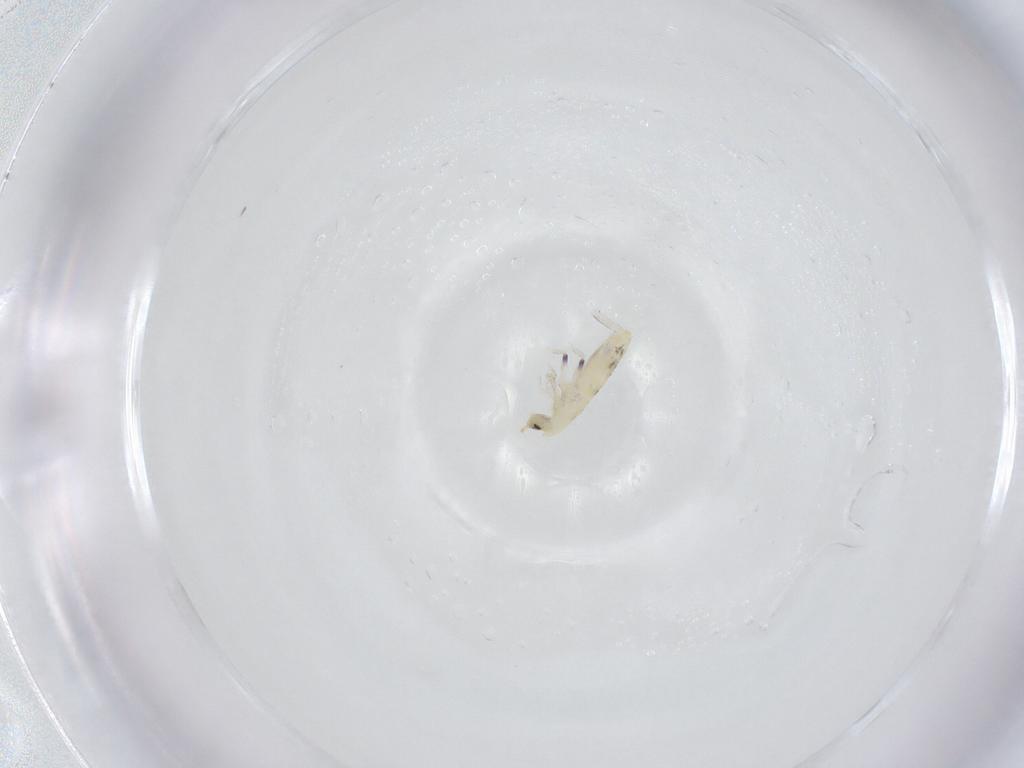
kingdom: Animalia
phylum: Arthropoda
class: Collembola
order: Entomobryomorpha
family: Entomobryidae
